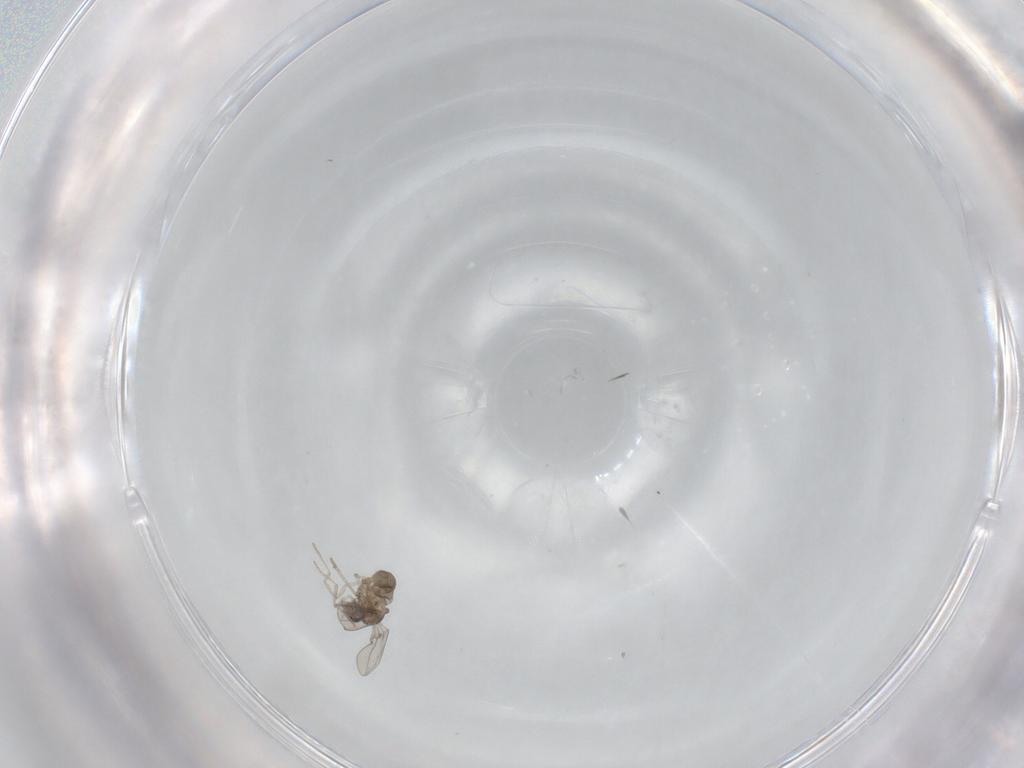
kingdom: Animalia
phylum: Arthropoda
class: Insecta
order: Diptera
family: Cecidomyiidae
